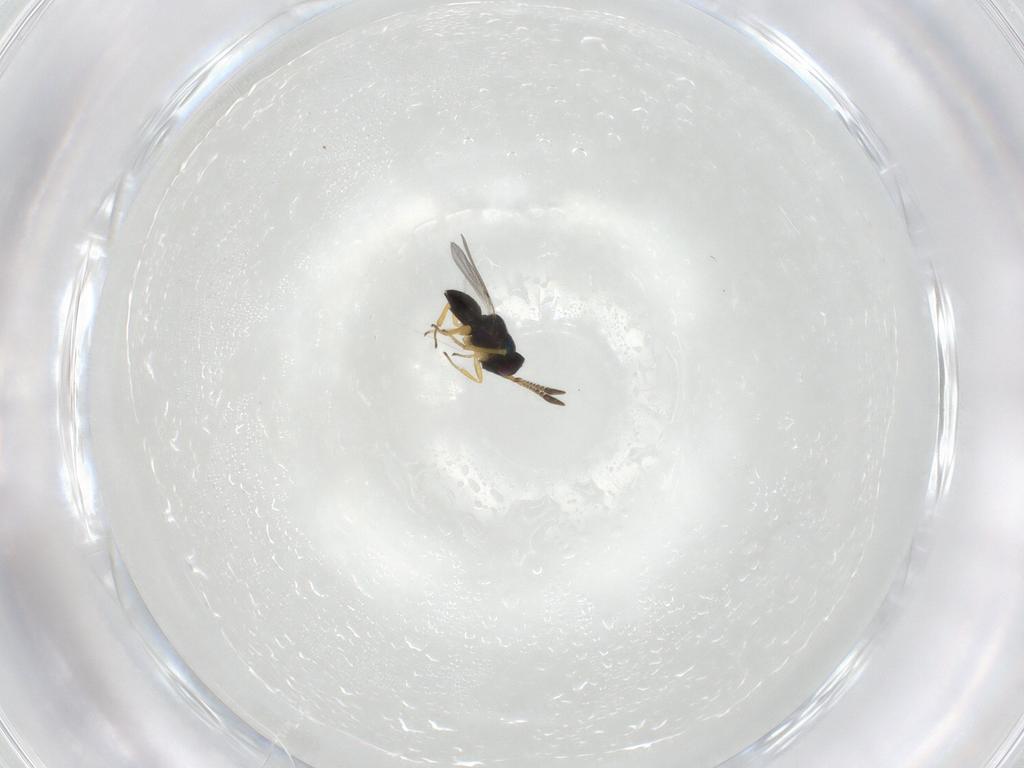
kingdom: Animalia
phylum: Arthropoda
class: Insecta
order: Hymenoptera
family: Encyrtidae
